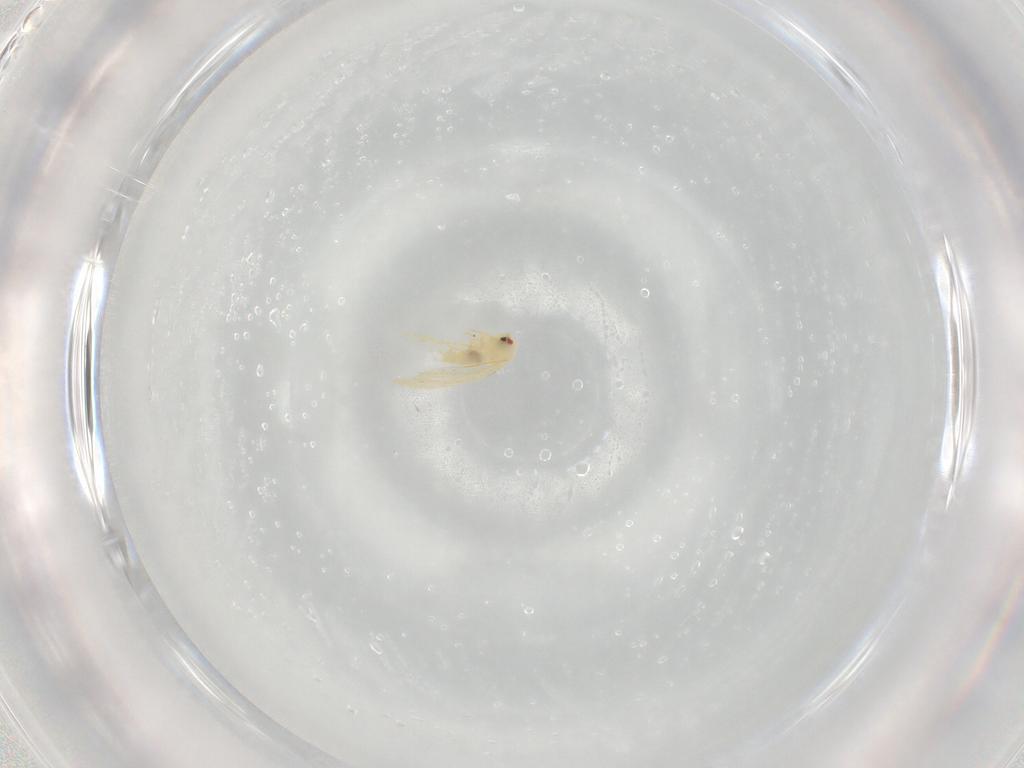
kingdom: Animalia
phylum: Arthropoda
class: Insecta
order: Hemiptera
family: Aleyrodidae
